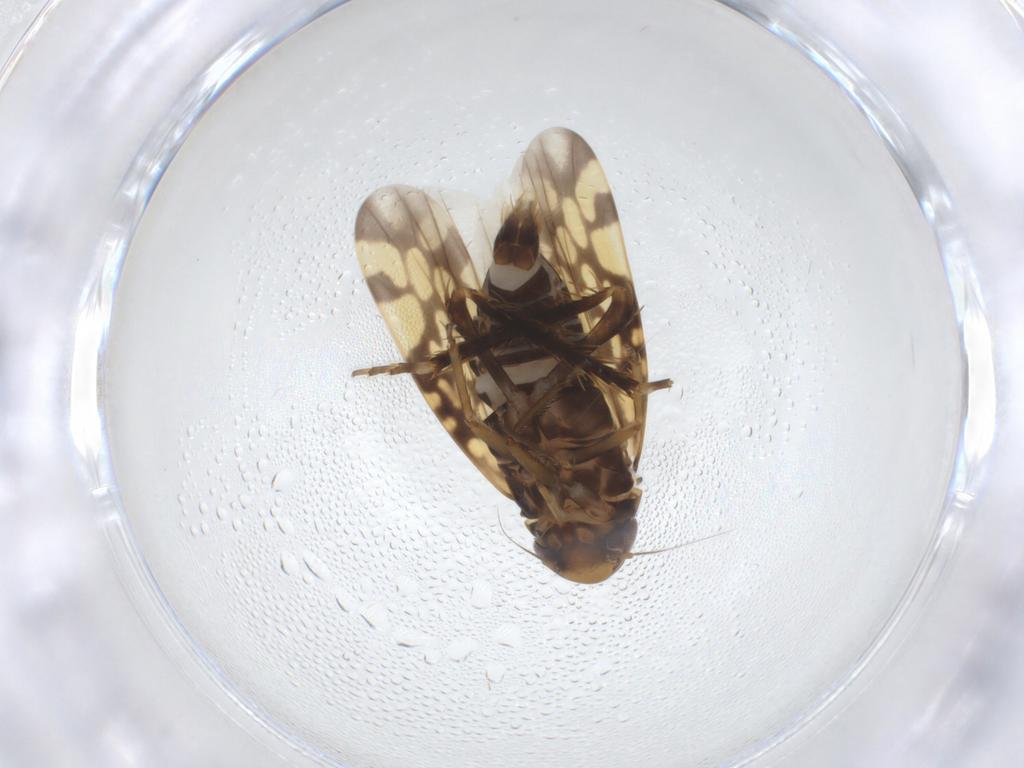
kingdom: Animalia
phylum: Arthropoda
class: Insecta
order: Hemiptera
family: Cicadellidae
